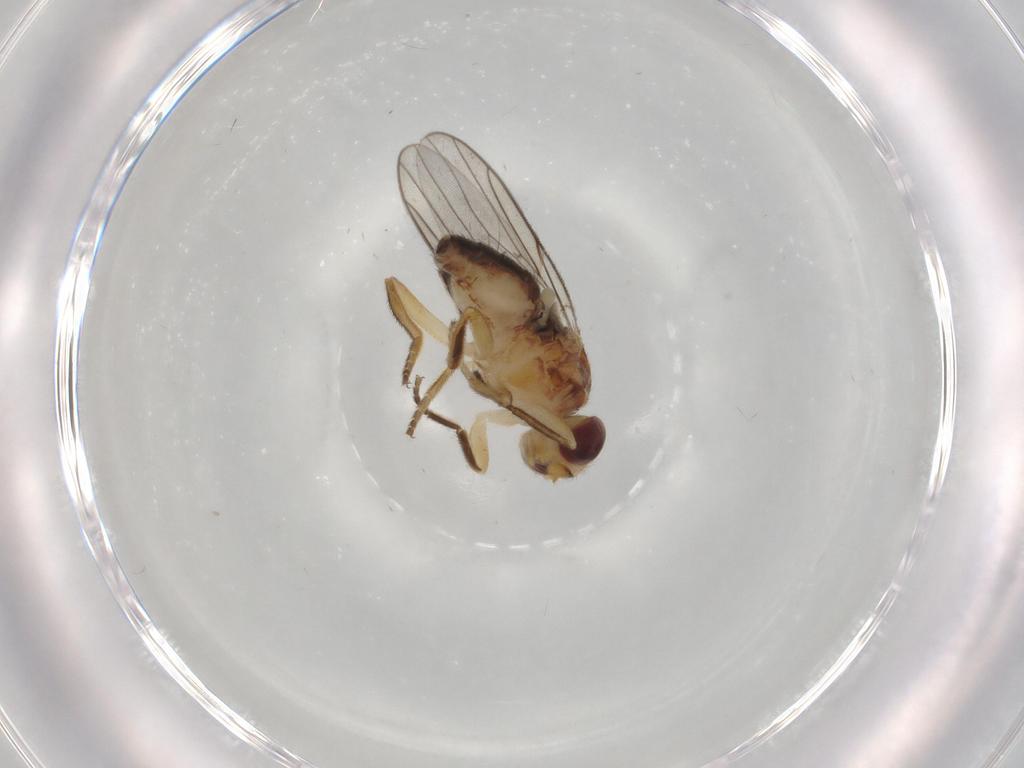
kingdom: Animalia
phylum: Arthropoda
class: Insecta
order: Diptera
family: Chloropidae
